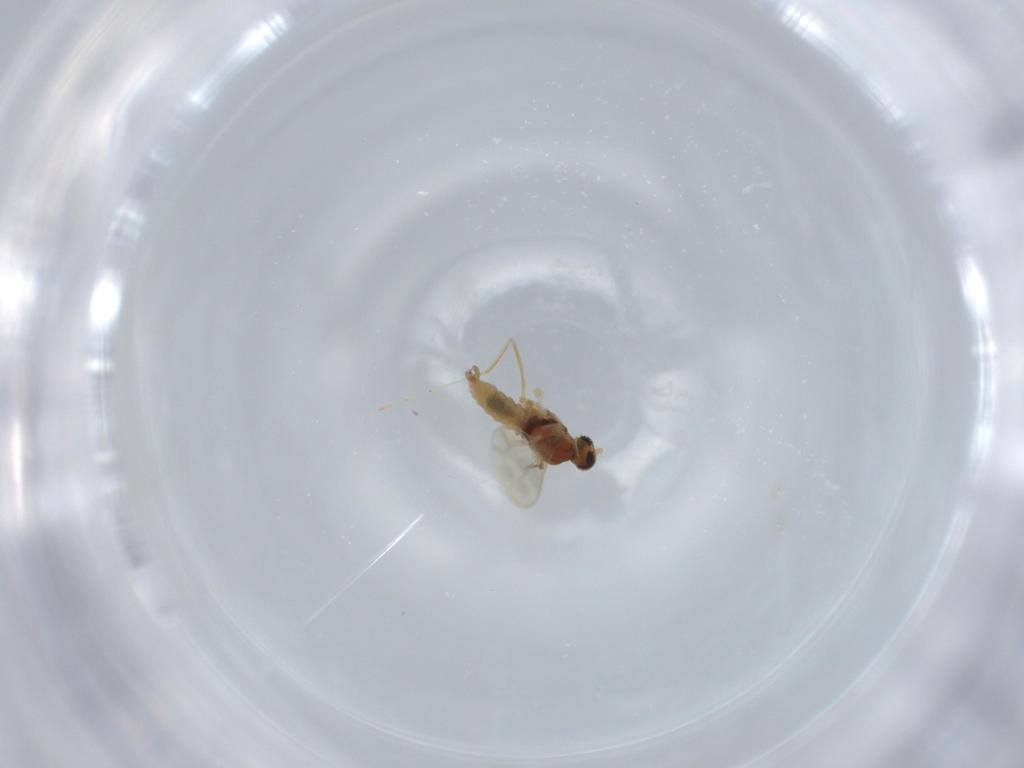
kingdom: Animalia
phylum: Arthropoda
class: Insecta
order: Diptera
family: Cecidomyiidae
